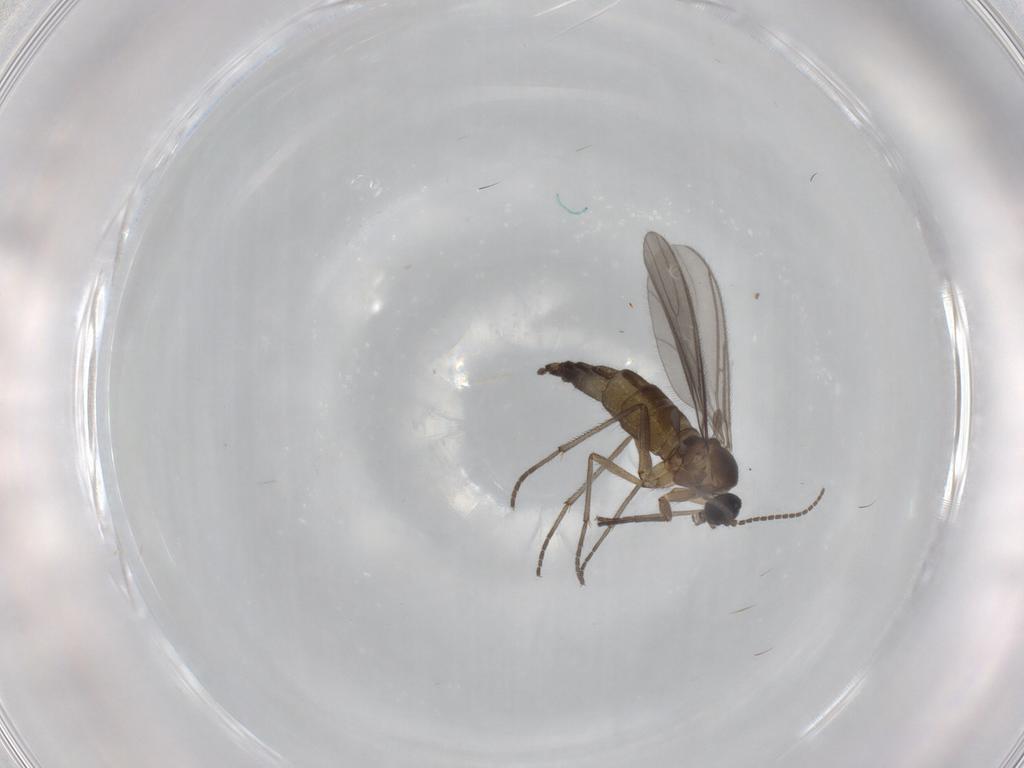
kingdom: Animalia
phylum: Arthropoda
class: Insecta
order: Diptera
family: Sciaridae
